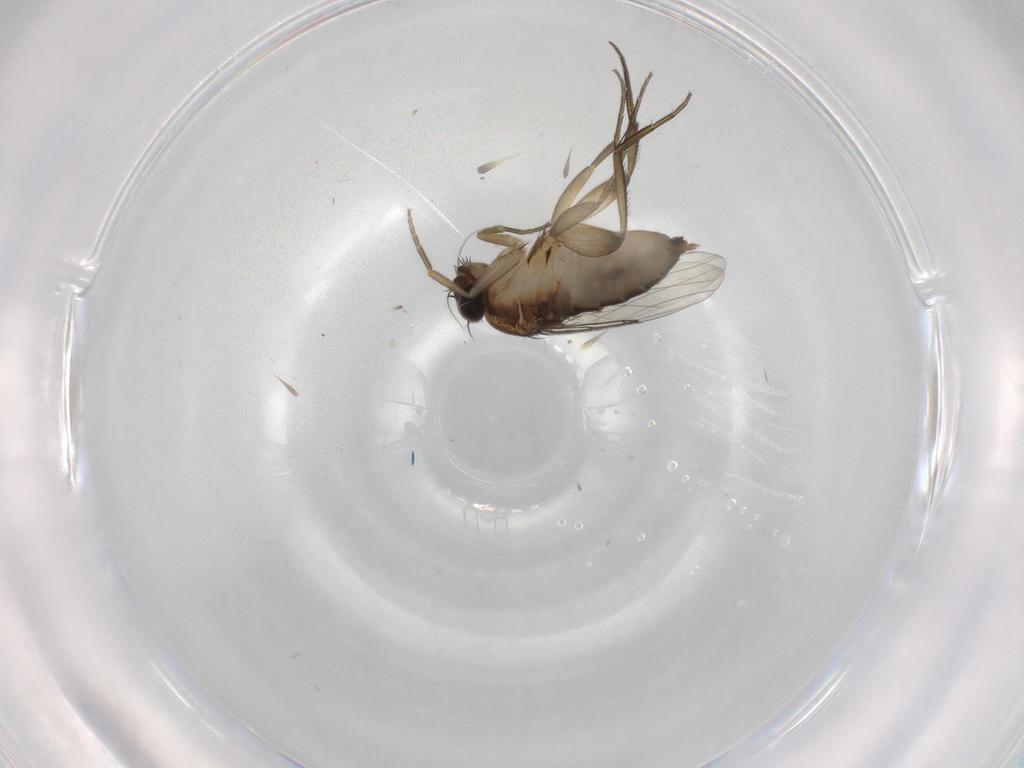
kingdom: Animalia
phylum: Arthropoda
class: Insecta
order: Diptera
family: Phoridae
